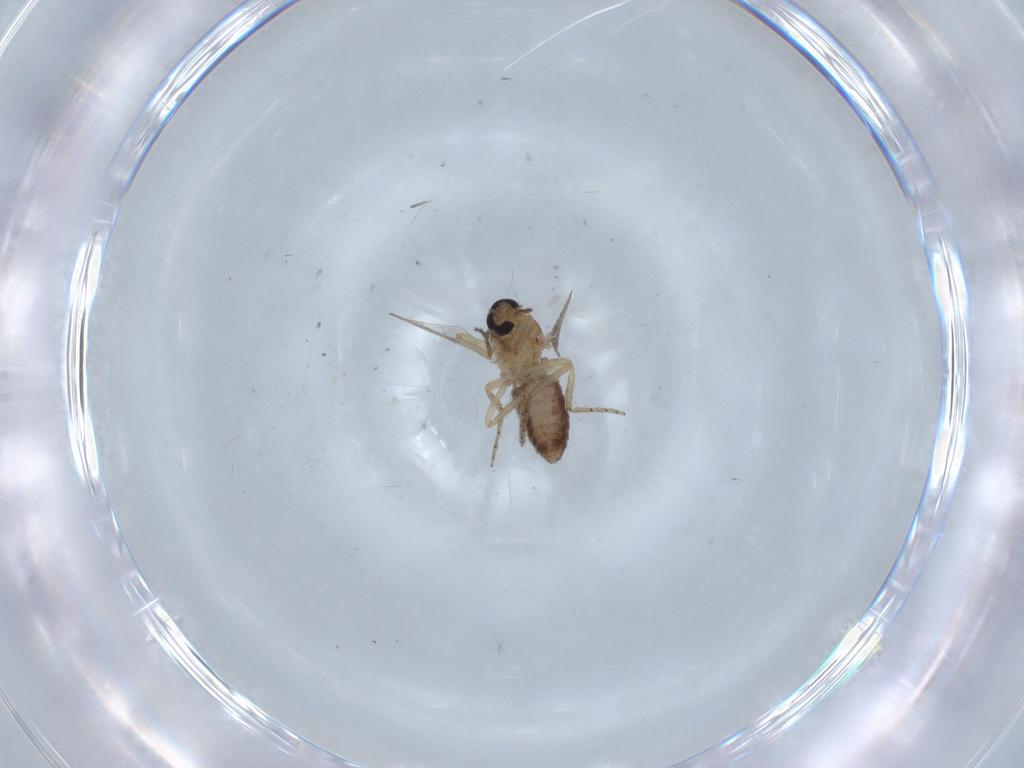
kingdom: Animalia
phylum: Arthropoda
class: Insecta
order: Diptera
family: Ceratopogonidae
